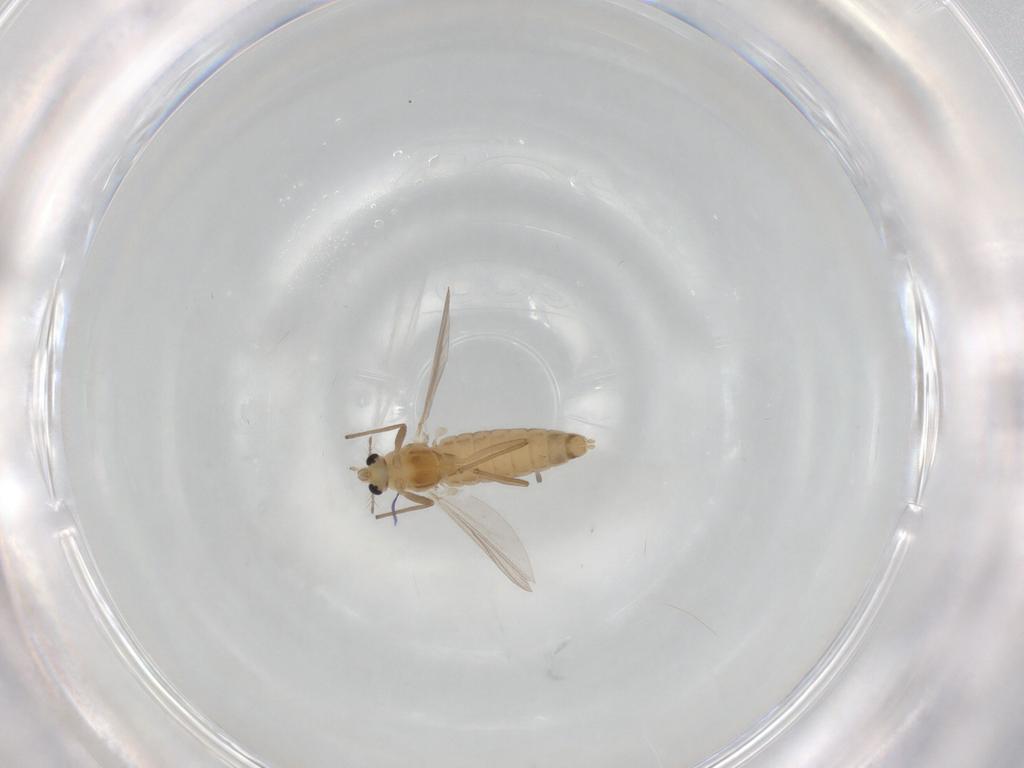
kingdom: Animalia
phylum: Arthropoda
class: Insecta
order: Diptera
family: Chironomidae
